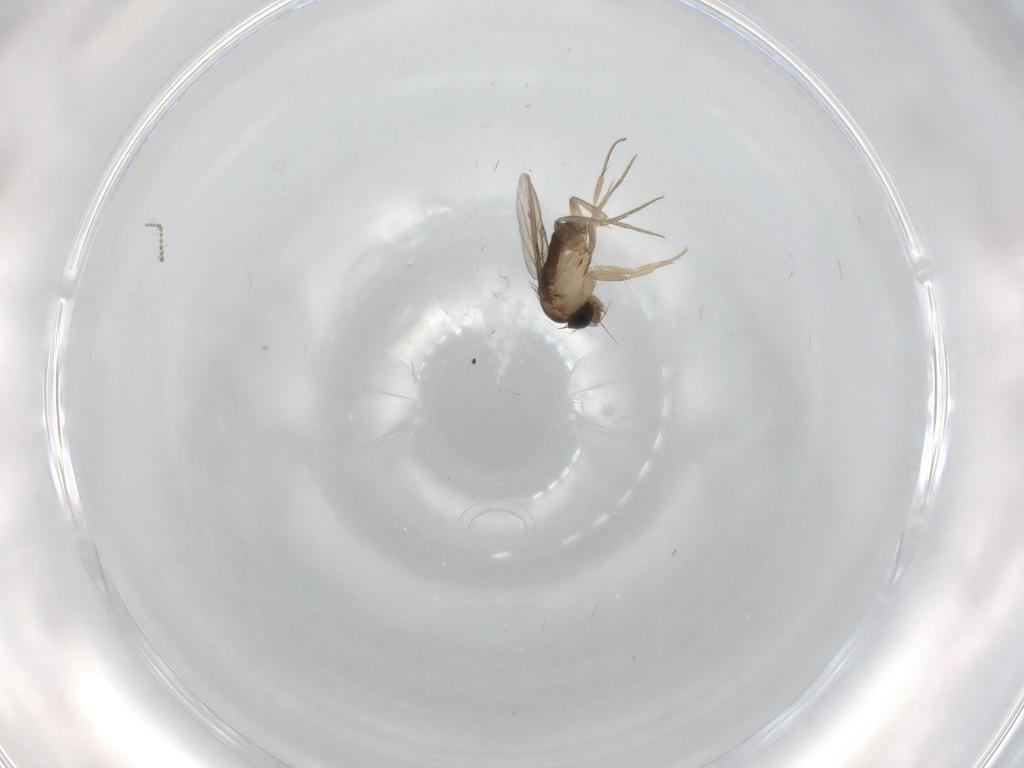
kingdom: Animalia
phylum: Arthropoda
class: Insecta
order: Diptera
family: Phoridae
